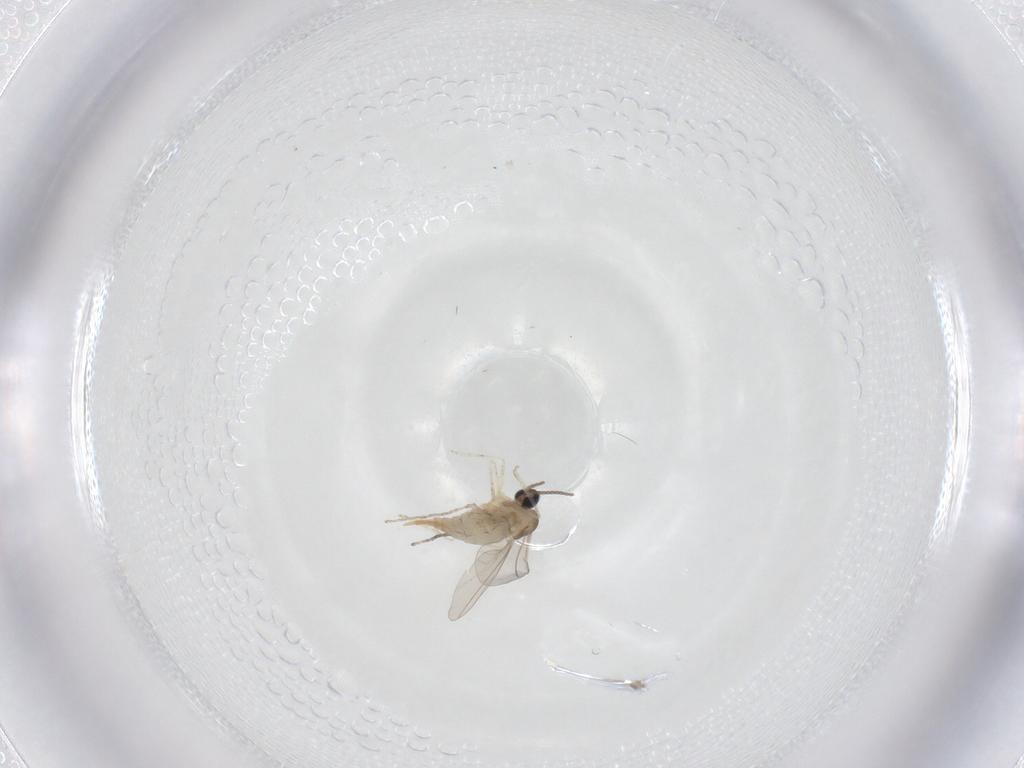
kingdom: Animalia
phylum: Arthropoda
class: Insecta
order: Diptera
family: Cecidomyiidae
